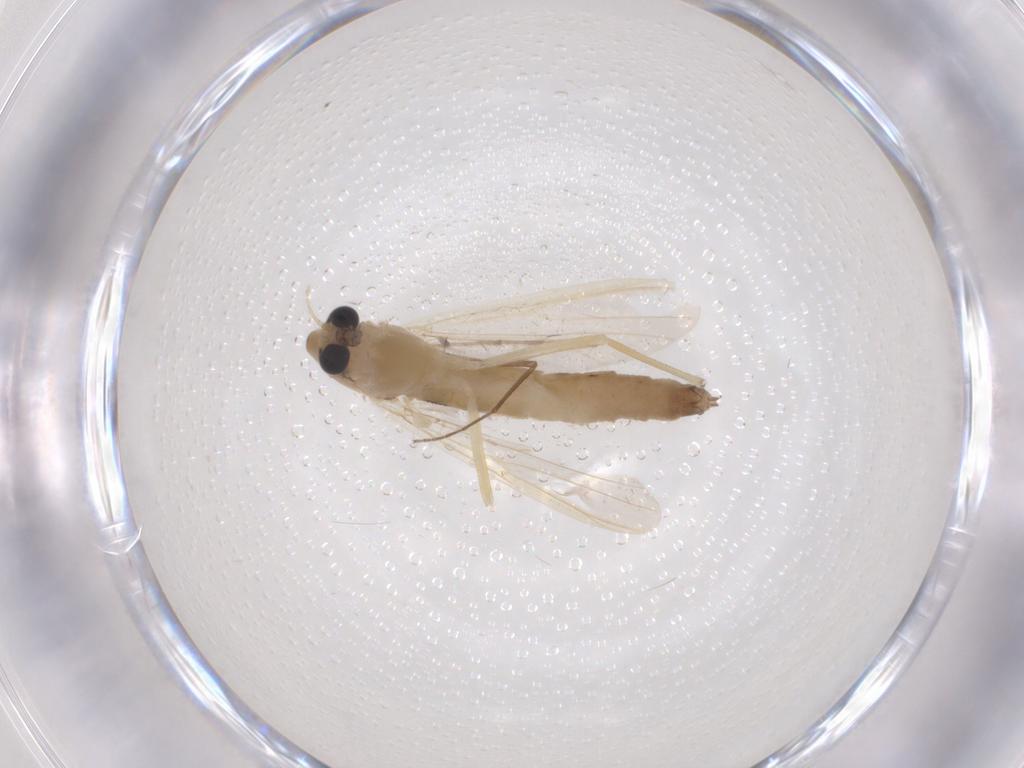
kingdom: Animalia
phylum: Arthropoda
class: Insecta
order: Diptera
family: Chironomidae
